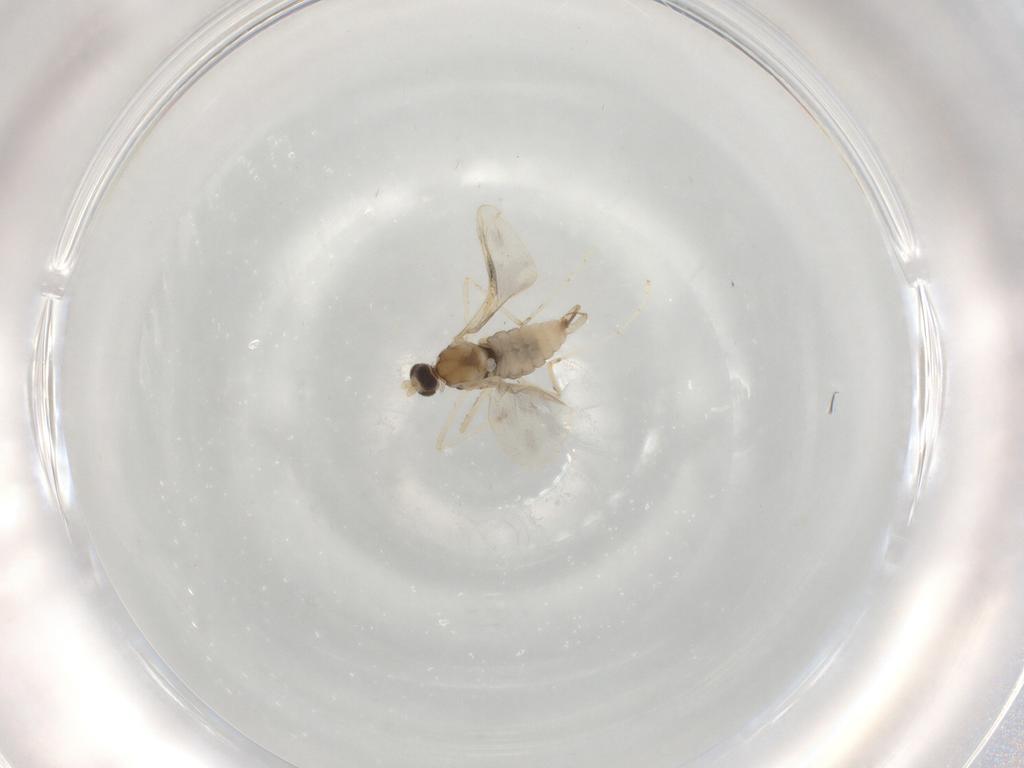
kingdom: Animalia
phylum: Arthropoda
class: Insecta
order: Diptera
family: Cecidomyiidae
